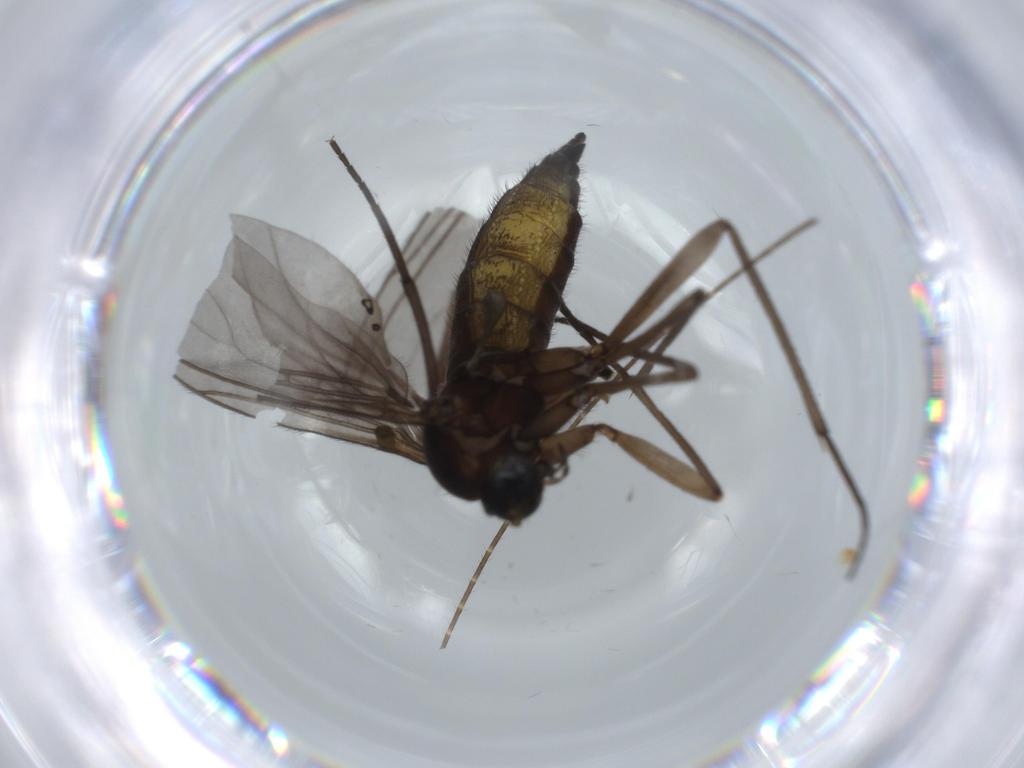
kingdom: Animalia
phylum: Arthropoda
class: Insecta
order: Diptera
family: Sciaridae
